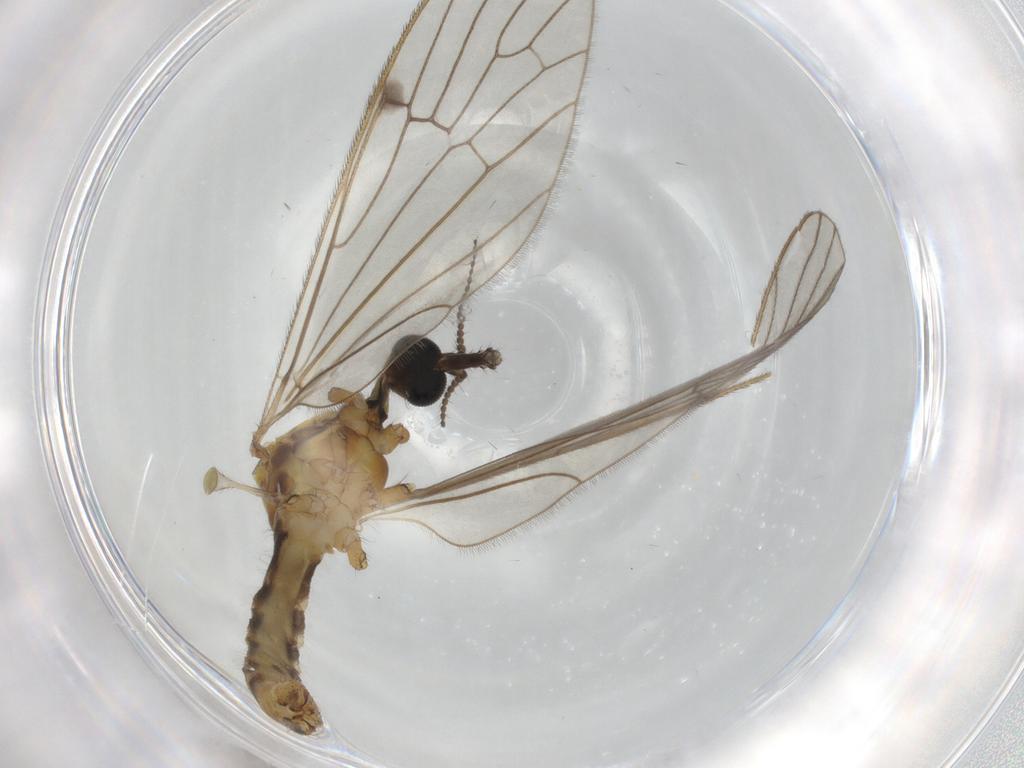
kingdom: Animalia
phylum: Arthropoda
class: Insecta
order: Diptera
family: Limoniidae
